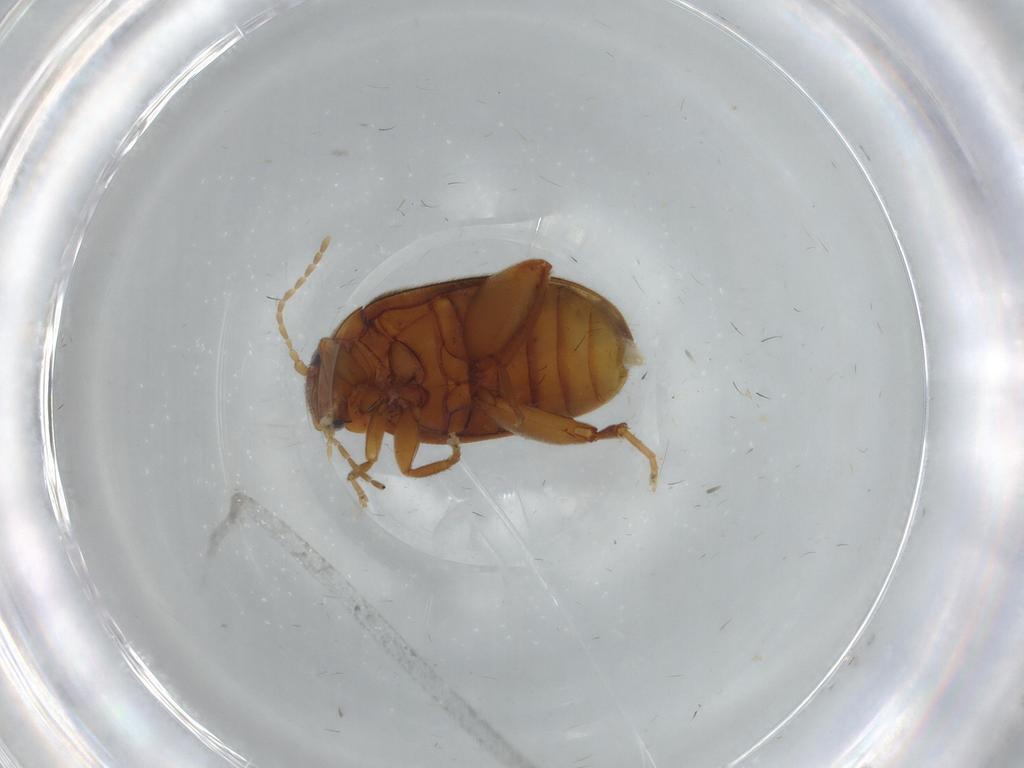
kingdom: Animalia
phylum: Arthropoda
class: Insecta
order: Coleoptera
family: Scirtidae
